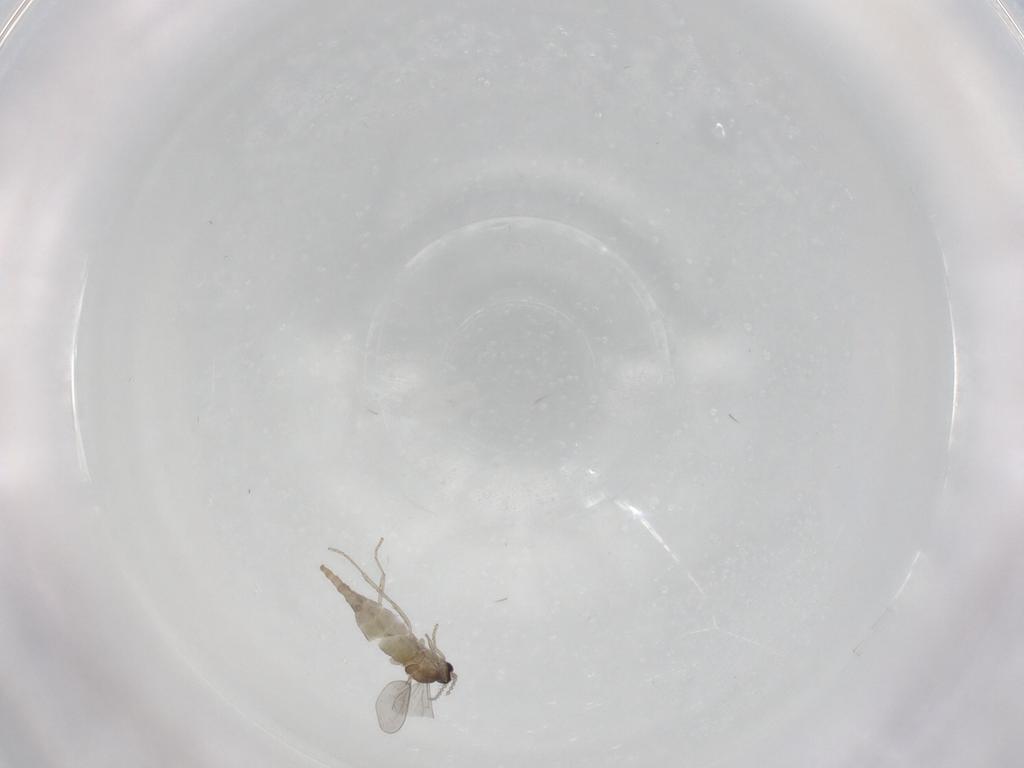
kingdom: Animalia
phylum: Arthropoda
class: Insecta
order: Diptera
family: Cecidomyiidae
